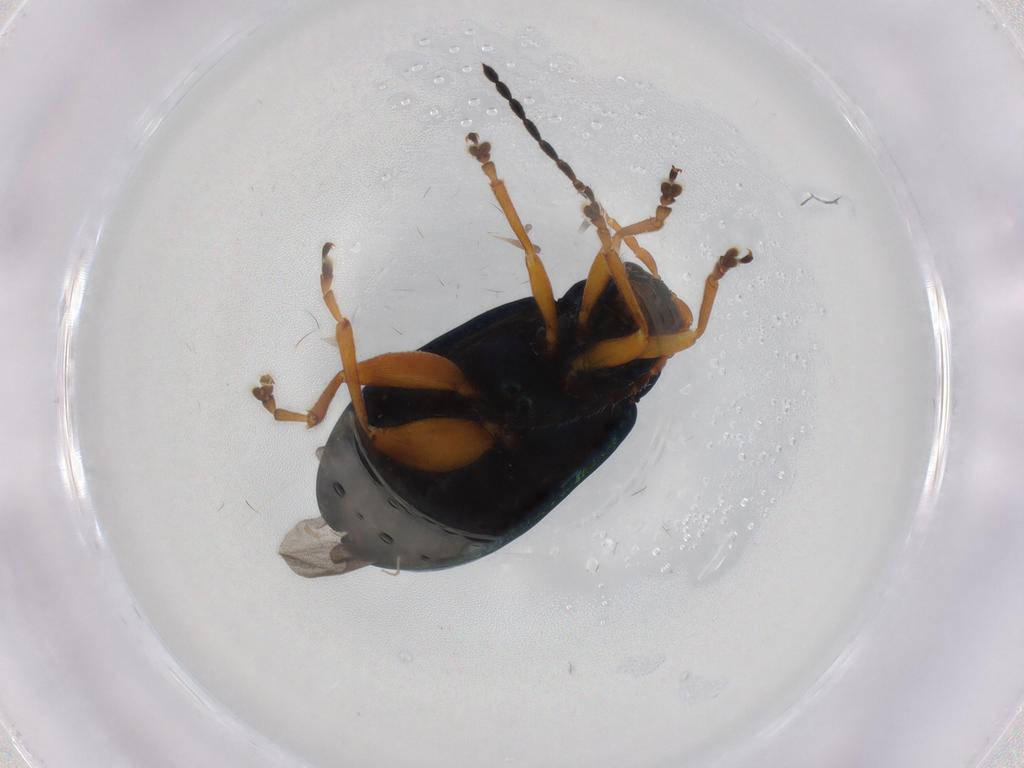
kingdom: Animalia
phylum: Arthropoda
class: Insecta
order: Coleoptera
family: Chrysomelidae
